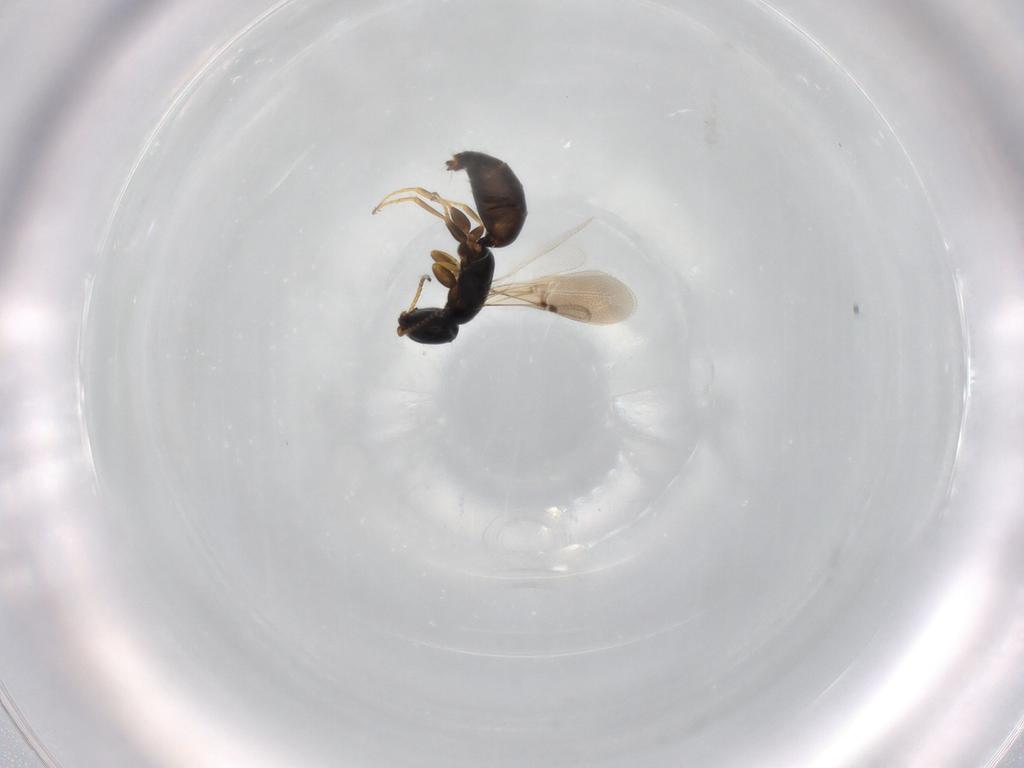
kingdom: Animalia
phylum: Arthropoda
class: Insecta
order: Hymenoptera
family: Bethylidae
